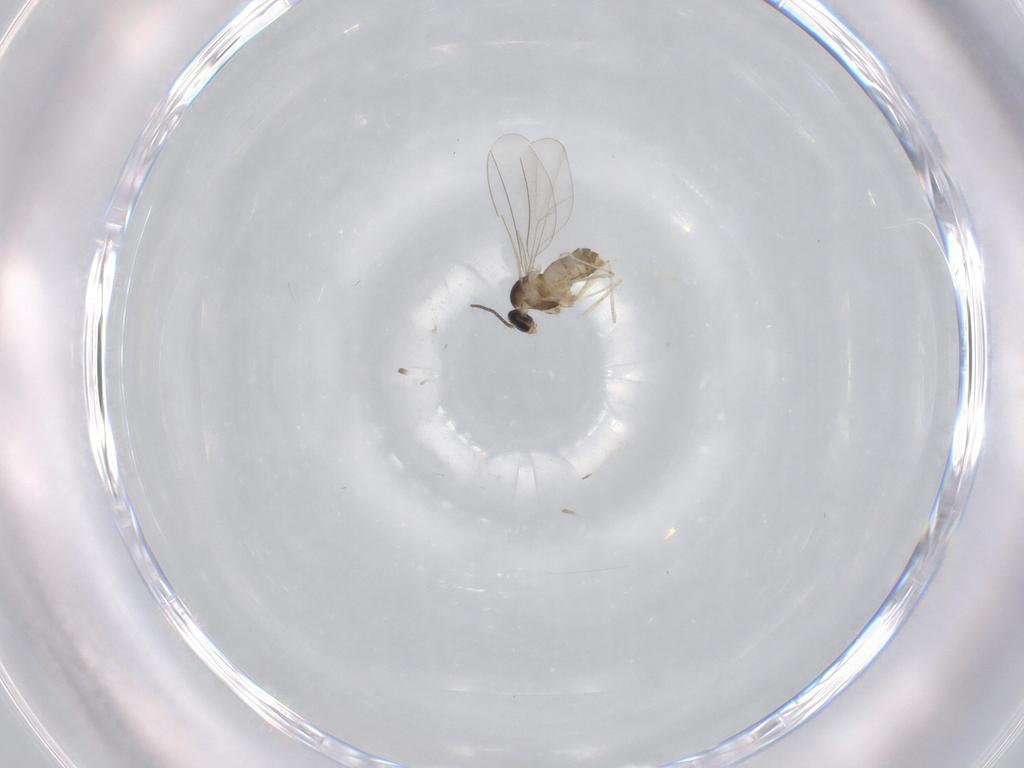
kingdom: Animalia
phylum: Arthropoda
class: Insecta
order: Diptera
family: Cecidomyiidae
